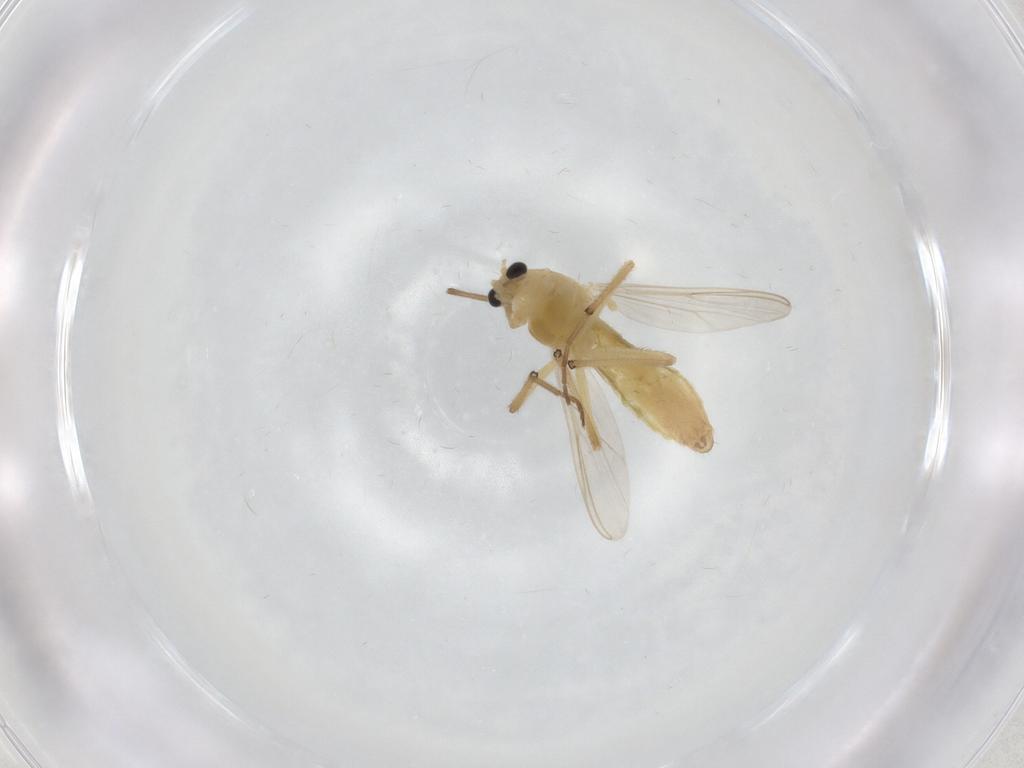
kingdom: Animalia
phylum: Arthropoda
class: Insecta
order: Diptera
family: Chironomidae
